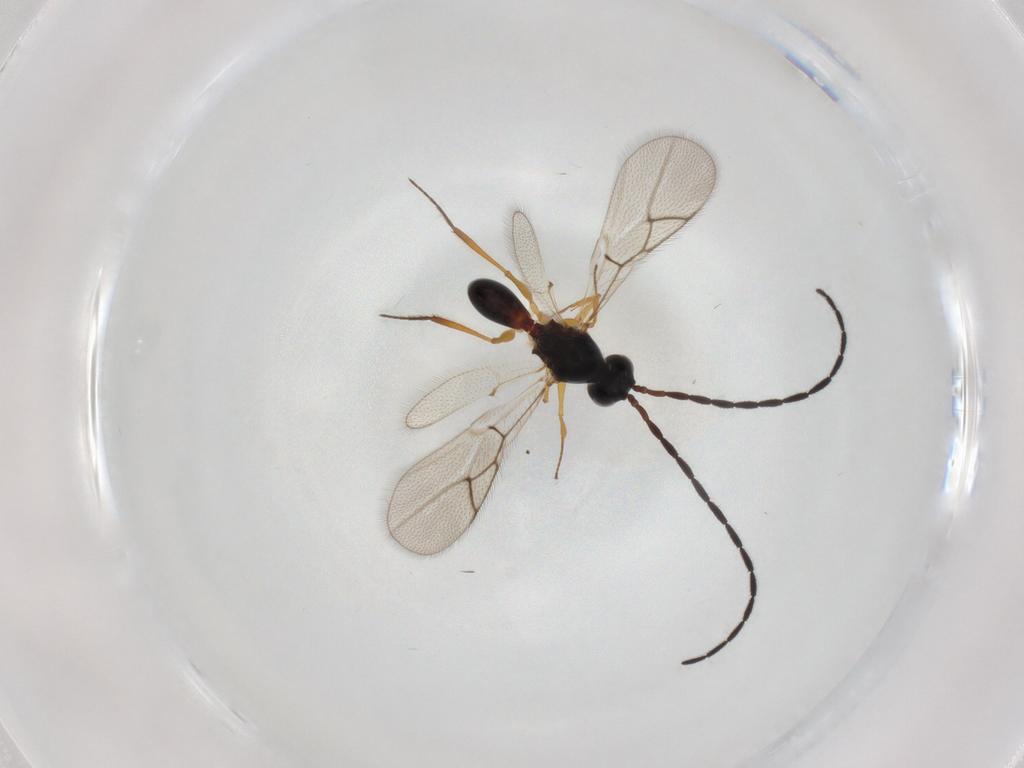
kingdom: Animalia
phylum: Arthropoda
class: Insecta
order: Hymenoptera
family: Figitidae
